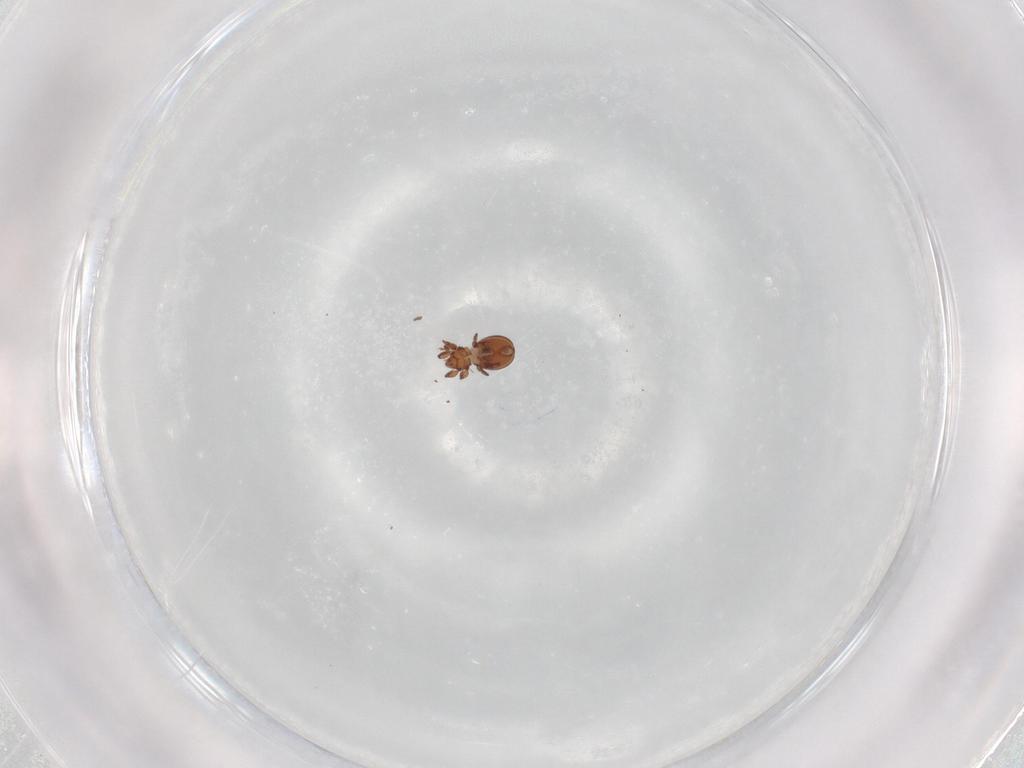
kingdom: Animalia
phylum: Arthropoda
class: Arachnida
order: Sarcoptiformes
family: Eremaeidae
